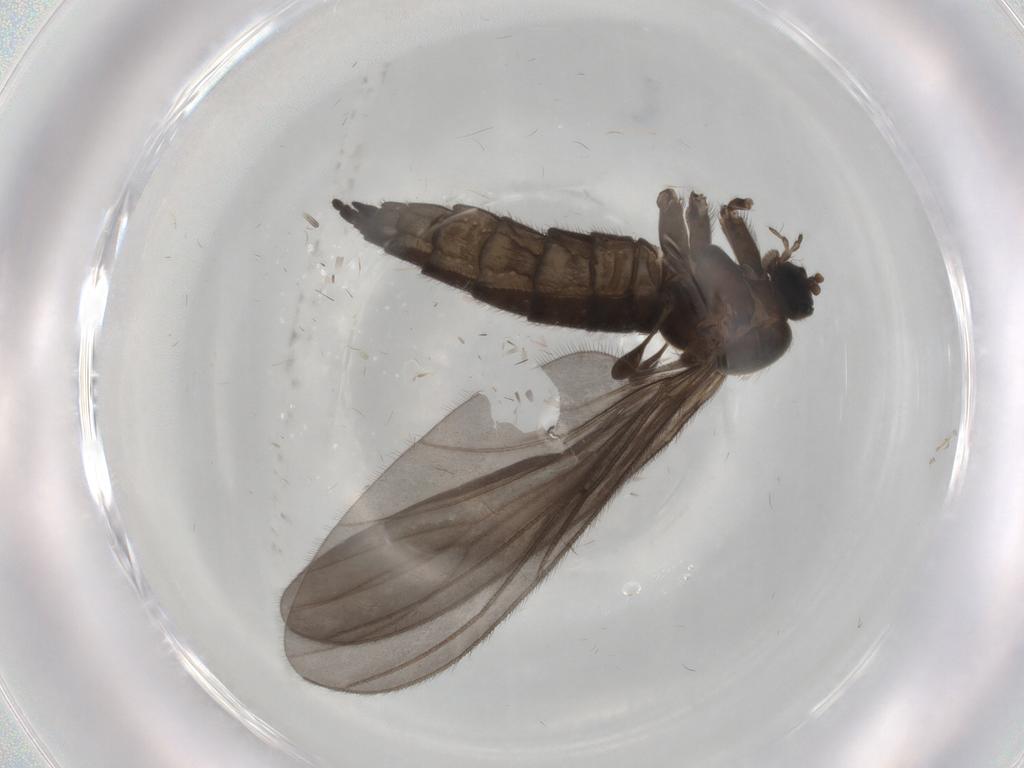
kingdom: Animalia
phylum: Arthropoda
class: Insecta
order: Diptera
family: Sciaridae
